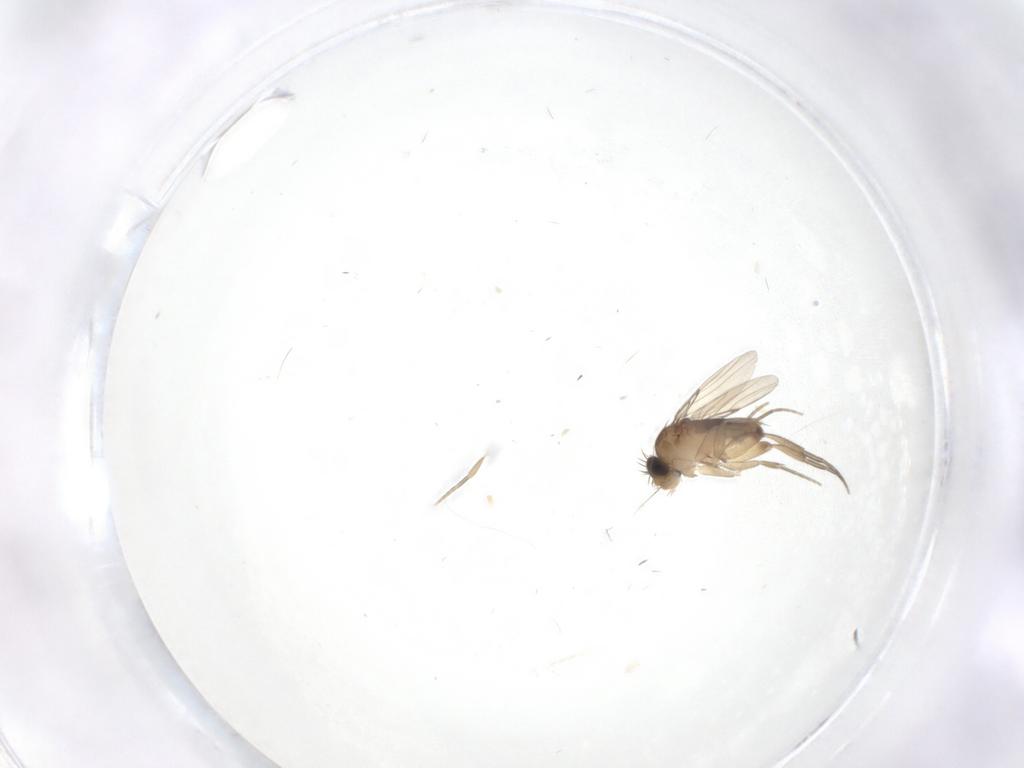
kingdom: Animalia
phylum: Arthropoda
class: Insecta
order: Diptera
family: Phoridae
